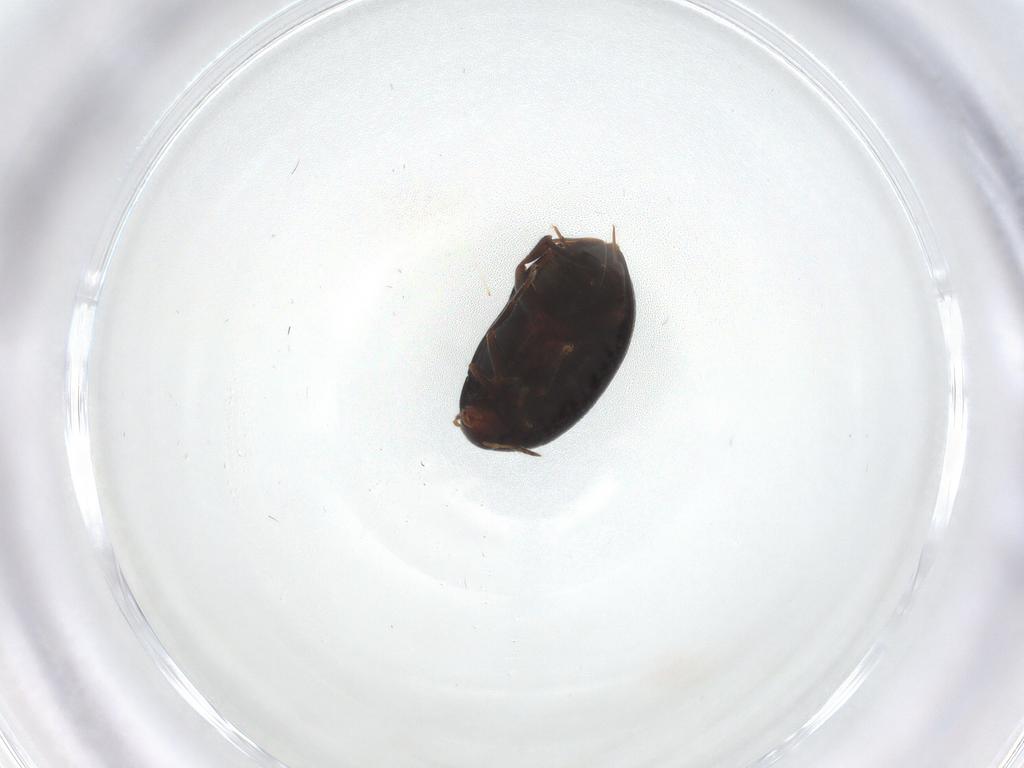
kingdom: Animalia
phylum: Arthropoda
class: Insecta
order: Coleoptera
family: Melandryidae
